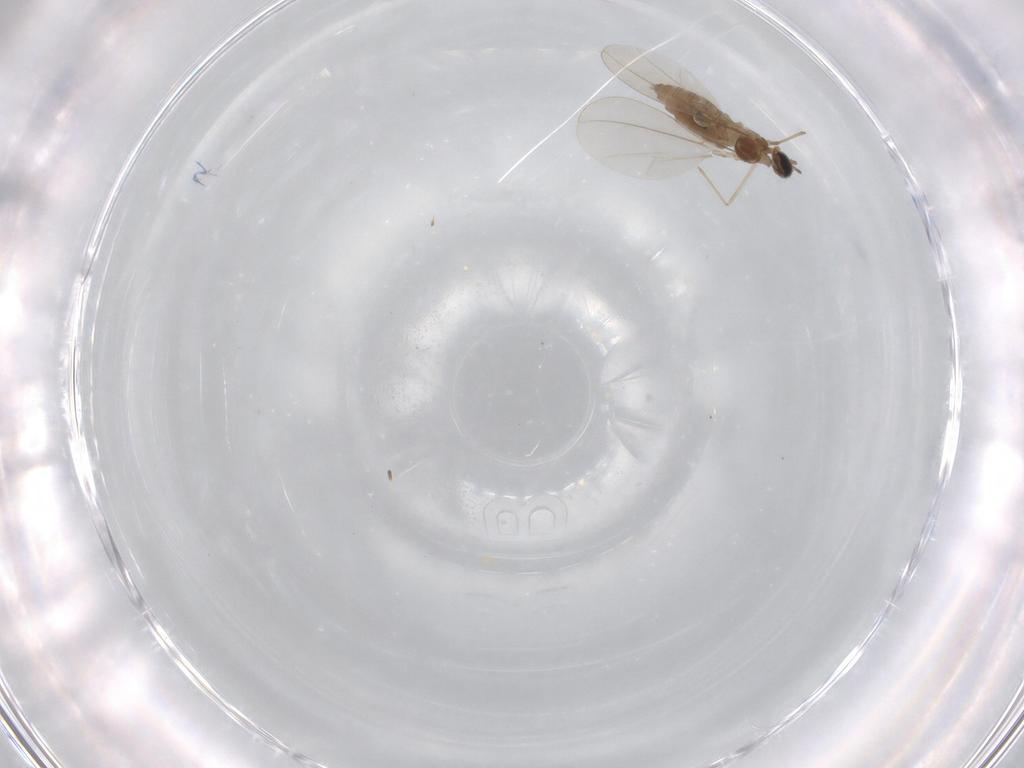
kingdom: Animalia
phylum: Arthropoda
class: Insecta
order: Diptera
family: Cecidomyiidae
